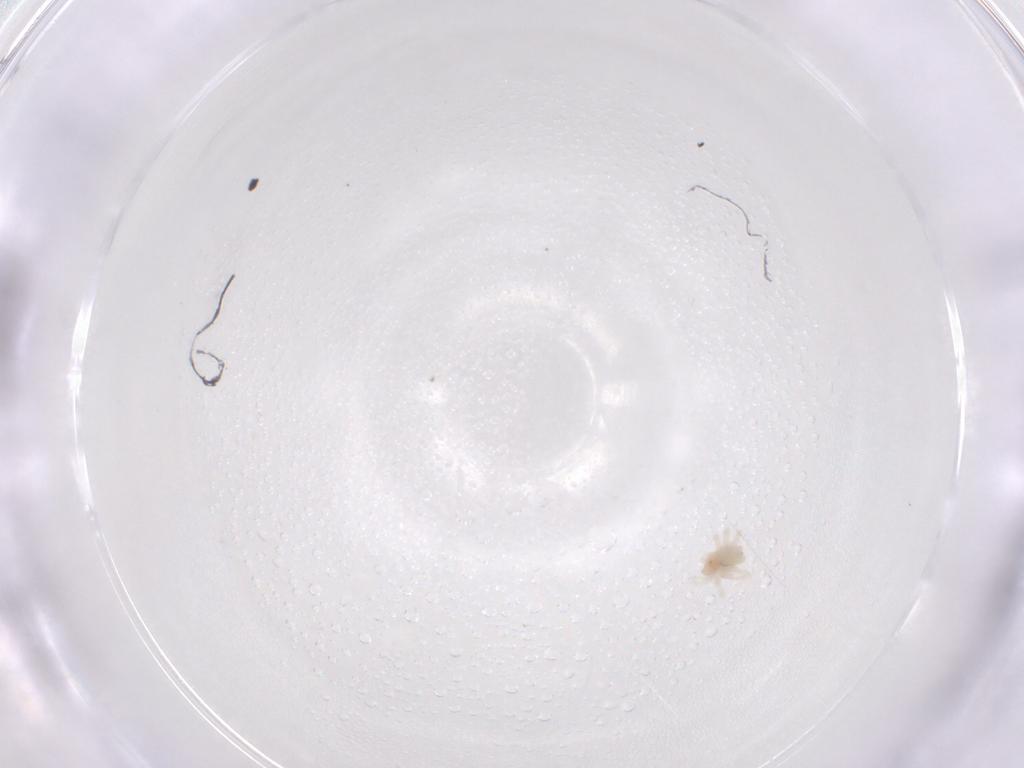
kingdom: Animalia
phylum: Arthropoda
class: Arachnida
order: Trombidiformes
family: Anystidae
